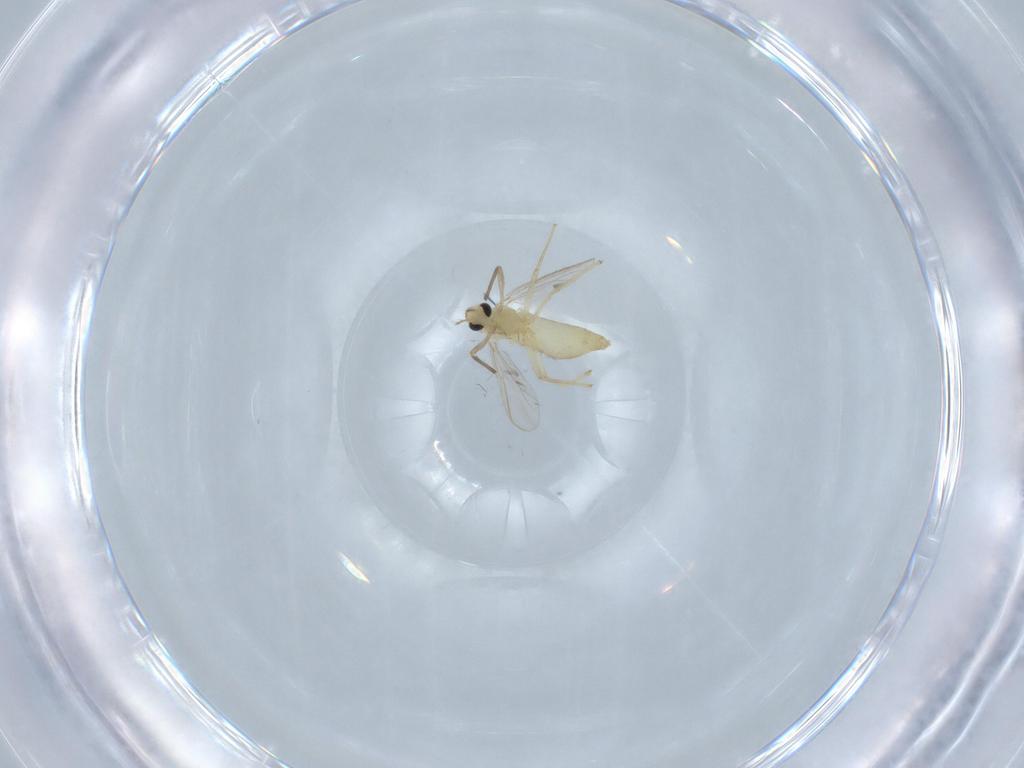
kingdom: Animalia
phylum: Arthropoda
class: Insecta
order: Diptera
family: Chironomidae
